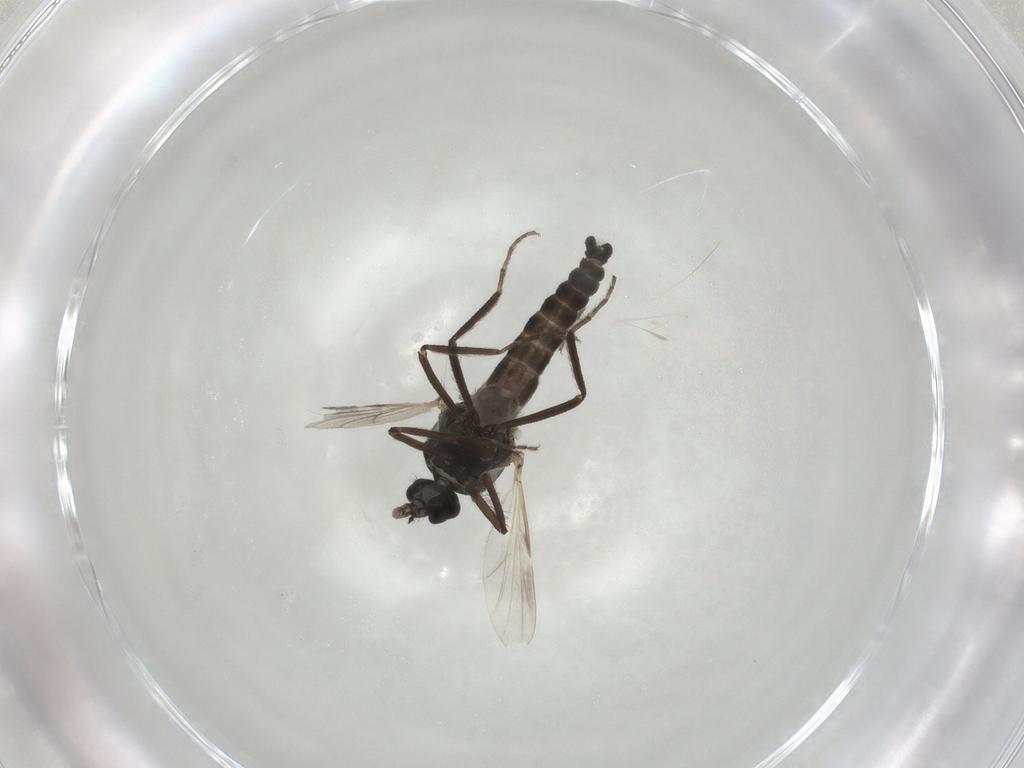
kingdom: Animalia
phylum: Arthropoda
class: Insecta
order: Diptera
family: Ceratopogonidae
